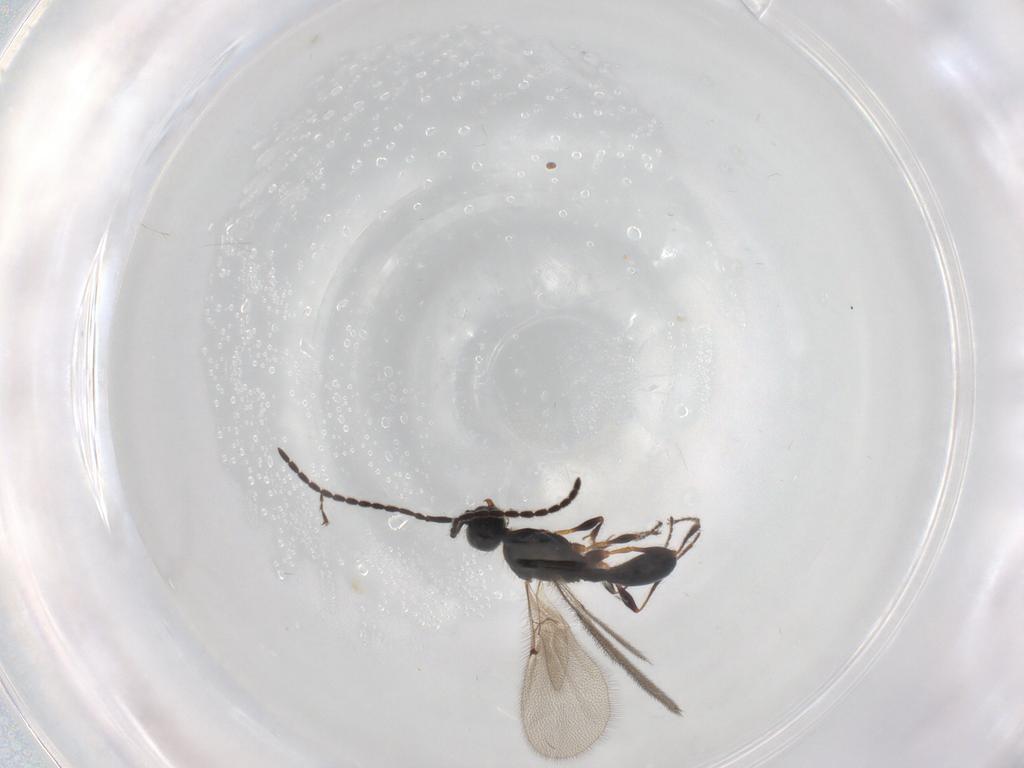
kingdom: Animalia
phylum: Arthropoda
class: Insecta
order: Hymenoptera
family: Diapriidae
